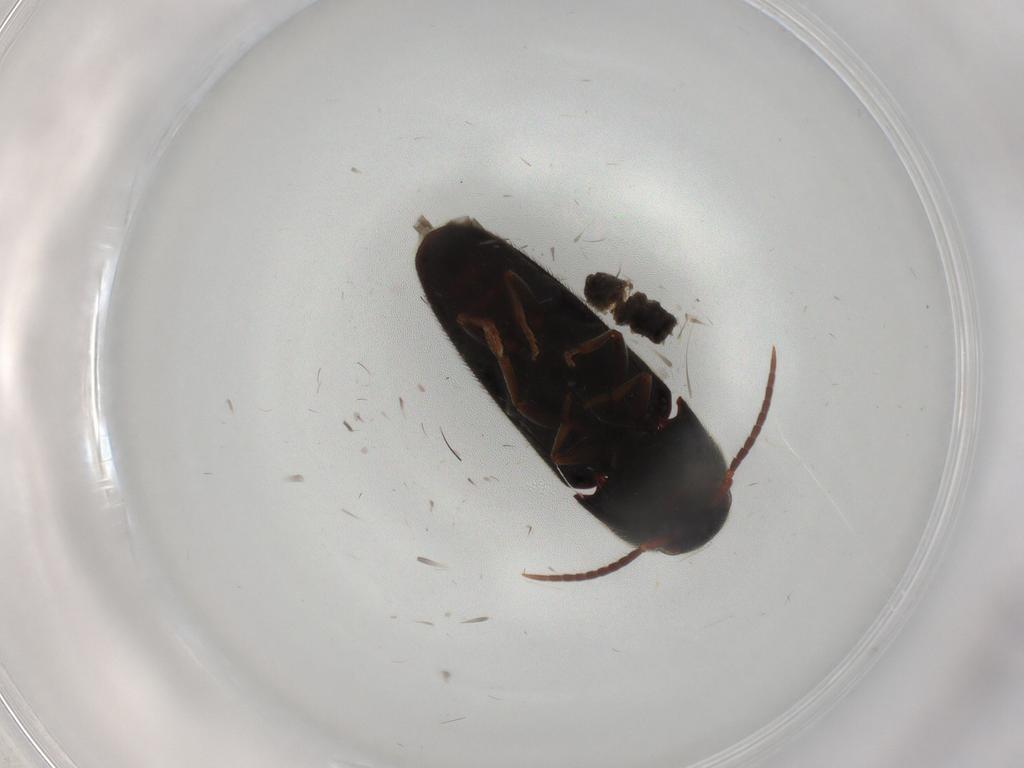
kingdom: Animalia
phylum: Arthropoda
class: Insecta
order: Coleoptera
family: Eucnemidae
